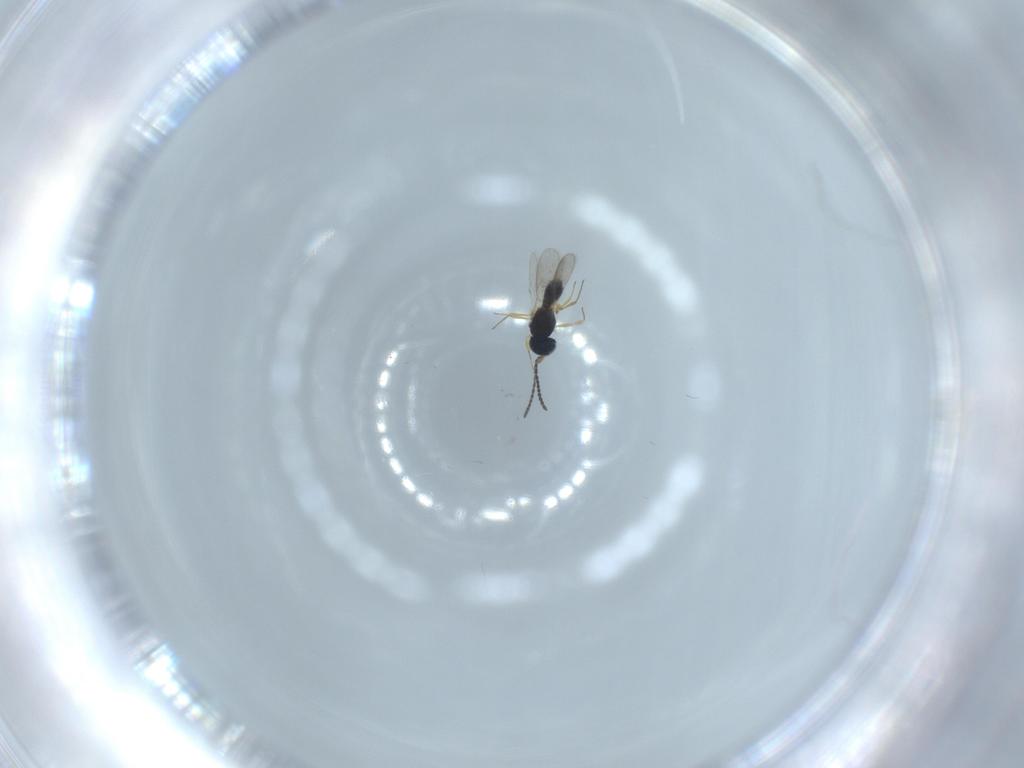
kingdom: Animalia
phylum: Arthropoda
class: Insecta
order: Hymenoptera
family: Scelionidae
